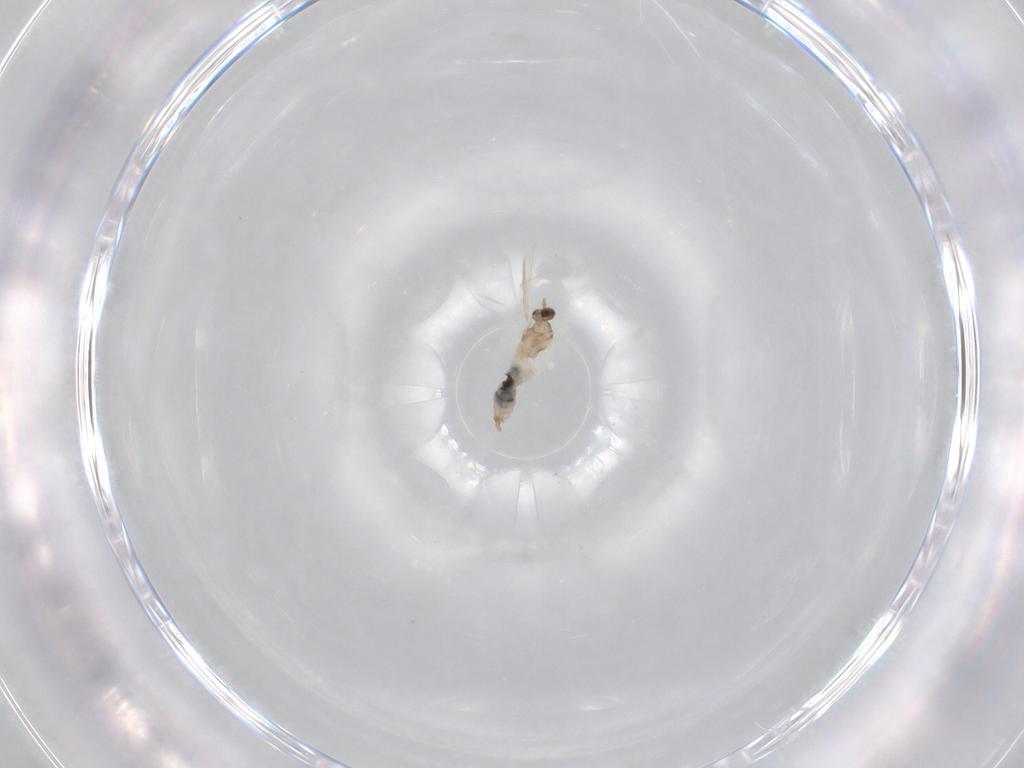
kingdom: Animalia
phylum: Arthropoda
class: Insecta
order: Diptera
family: Cecidomyiidae
